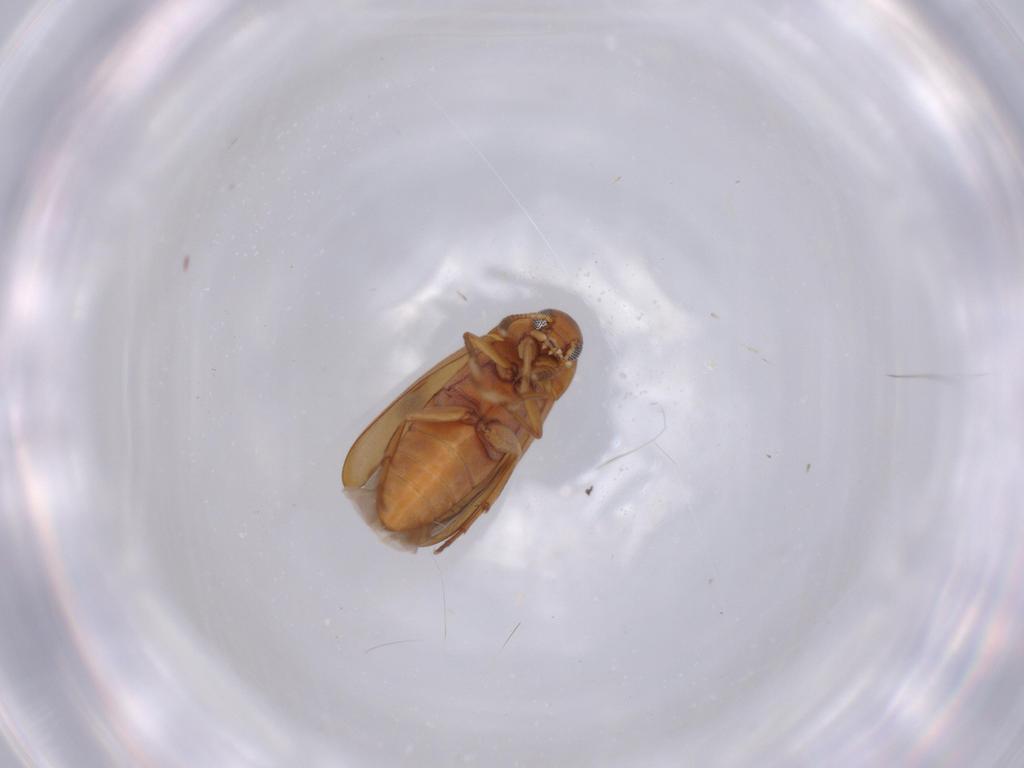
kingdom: Animalia
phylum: Arthropoda
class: Insecta
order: Coleoptera
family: Scraptiidae
